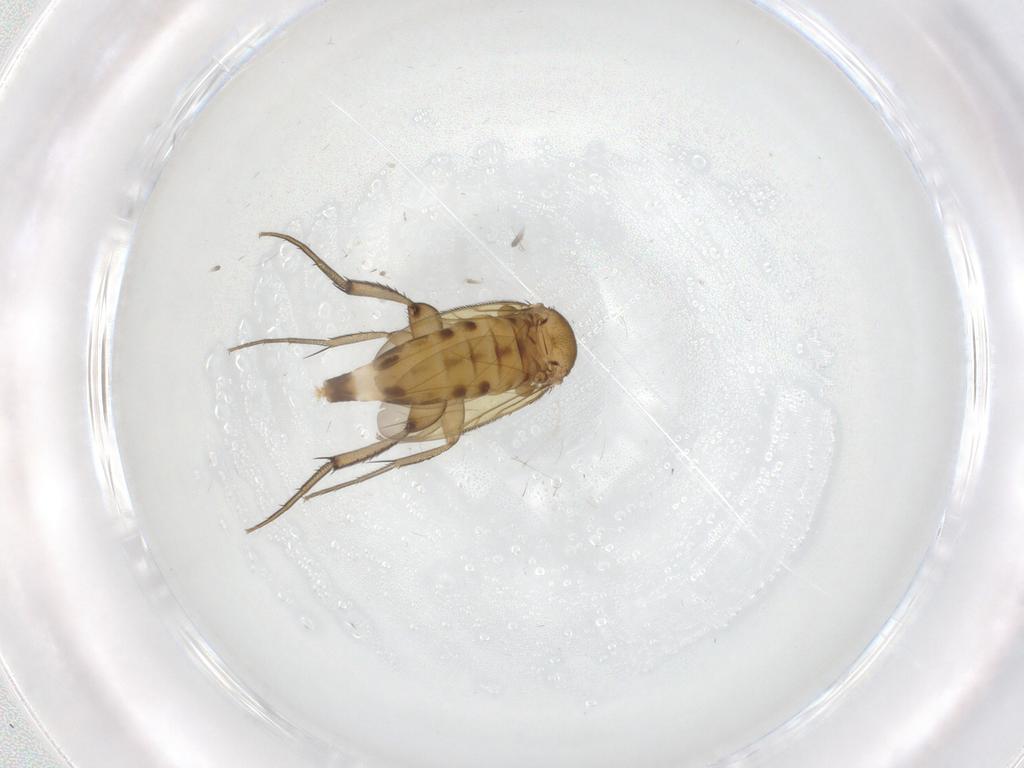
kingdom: Animalia
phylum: Arthropoda
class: Insecta
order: Diptera
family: Phoridae
